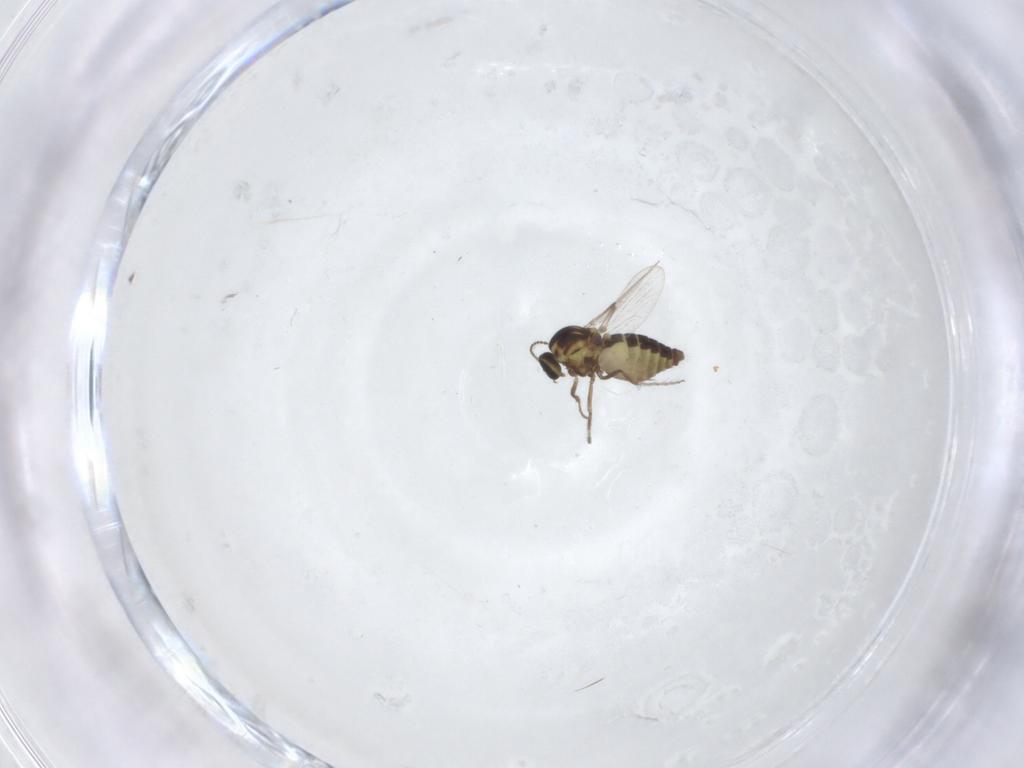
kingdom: Animalia
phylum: Arthropoda
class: Insecta
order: Diptera
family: Ceratopogonidae
